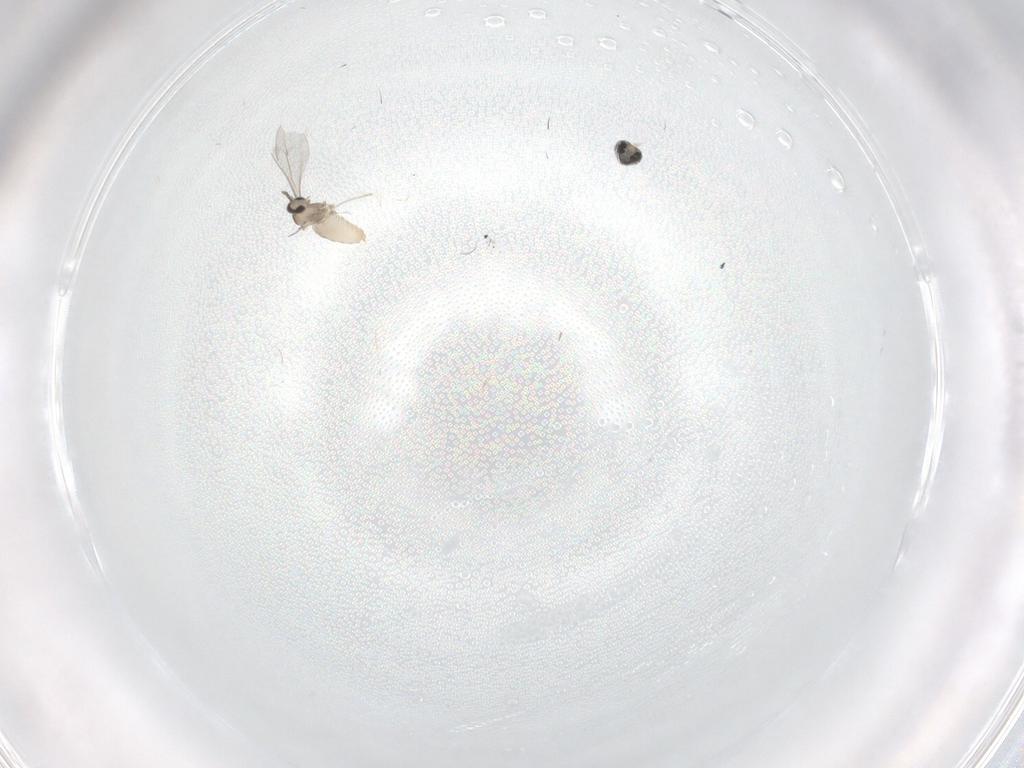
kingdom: Animalia
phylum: Arthropoda
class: Insecta
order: Diptera
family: Cecidomyiidae
